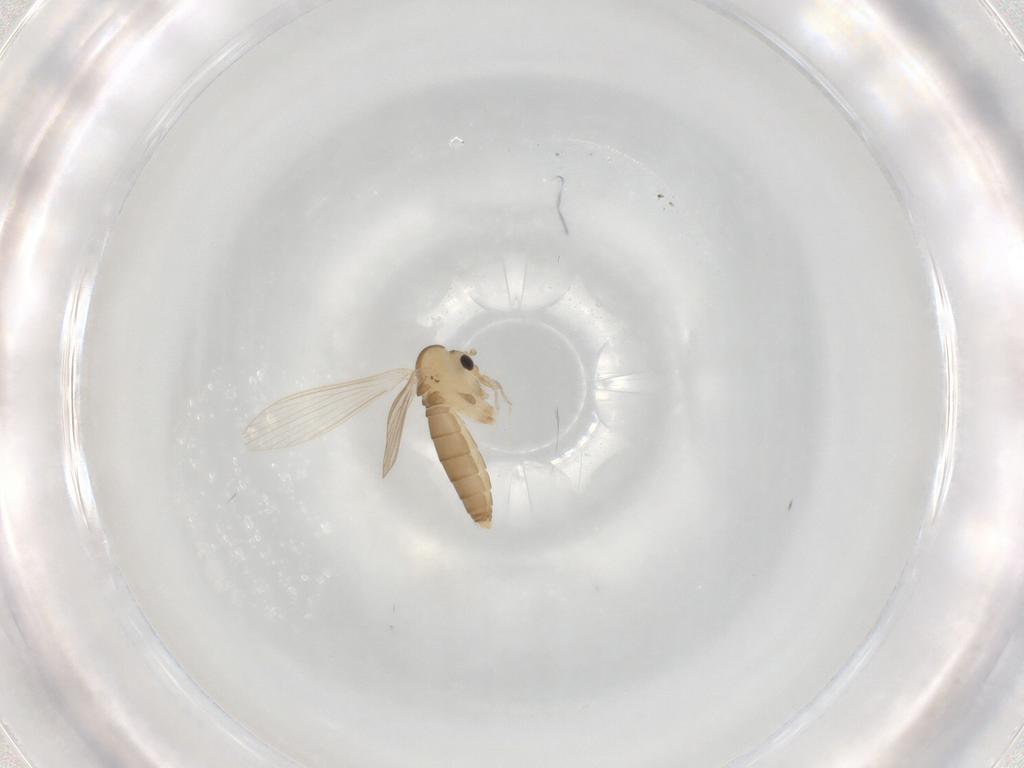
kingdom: Animalia
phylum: Arthropoda
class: Insecta
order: Diptera
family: Psychodidae
